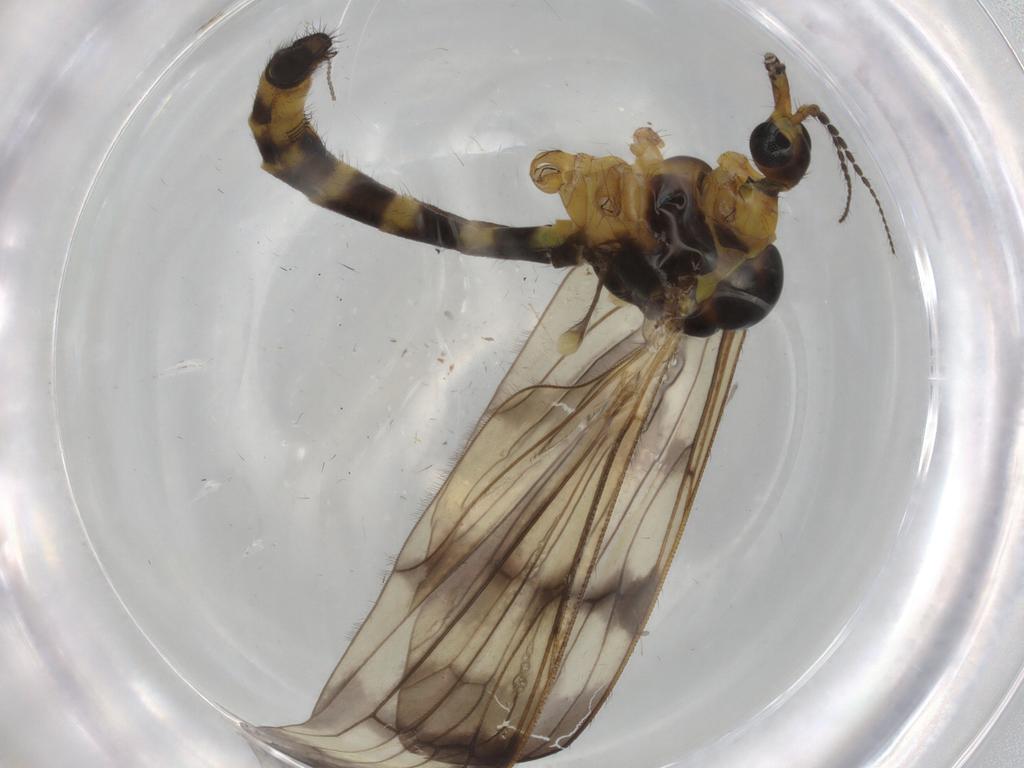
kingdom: Animalia
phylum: Arthropoda
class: Insecta
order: Diptera
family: Limoniidae
